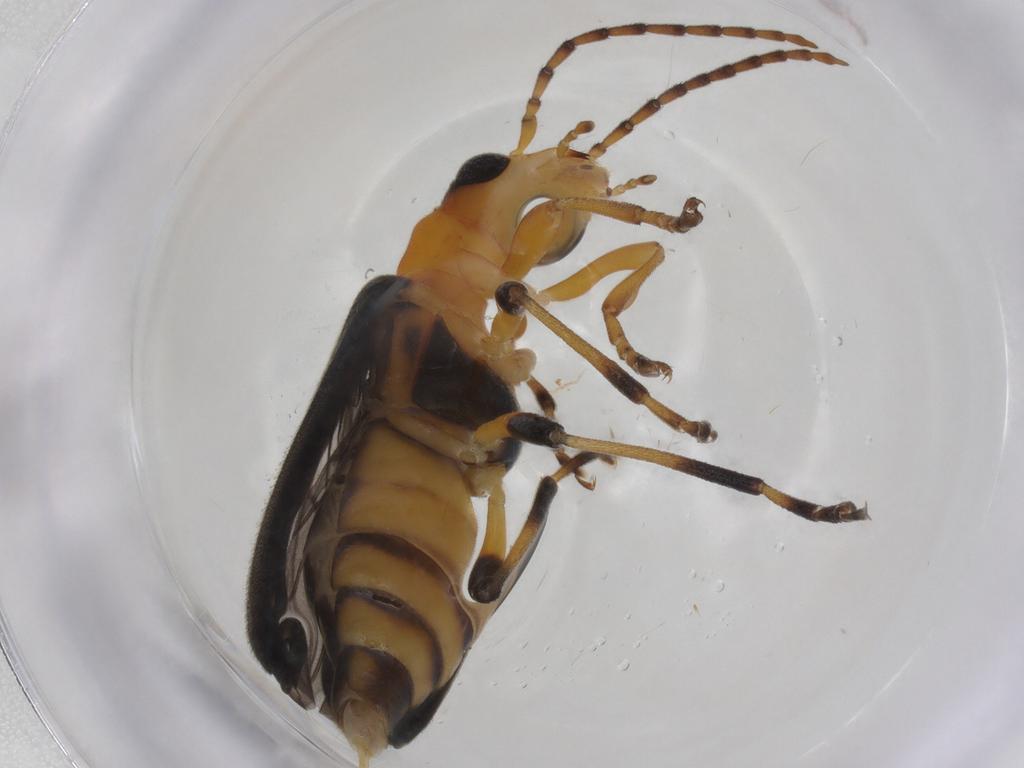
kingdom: Animalia
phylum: Arthropoda
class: Insecta
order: Coleoptera
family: Oedemeridae
